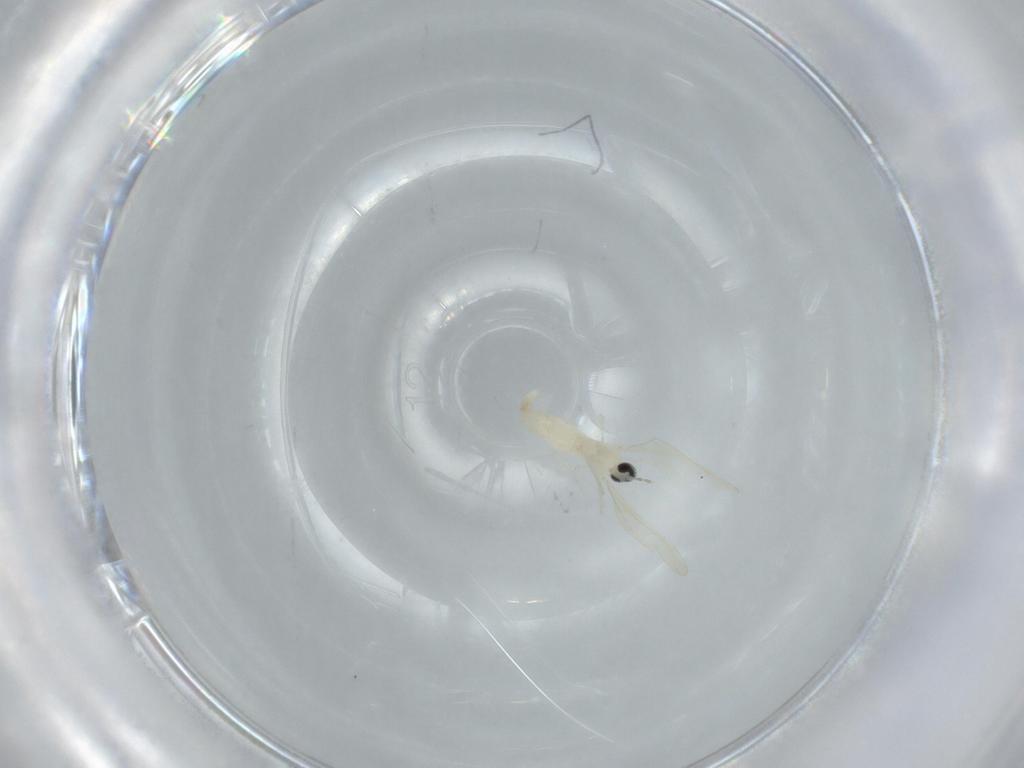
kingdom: Animalia
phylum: Arthropoda
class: Insecta
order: Diptera
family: Cecidomyiidae
